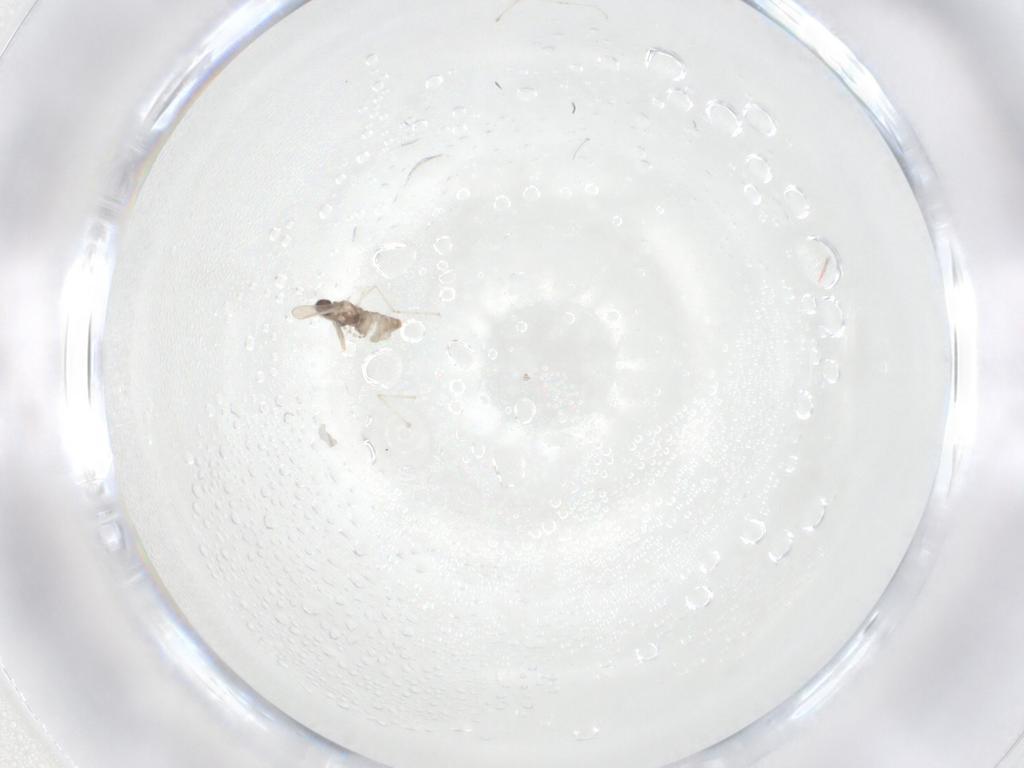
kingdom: Animalia
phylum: Arthropoda
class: Insecta
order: Diptera
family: Cecidomyiidae
